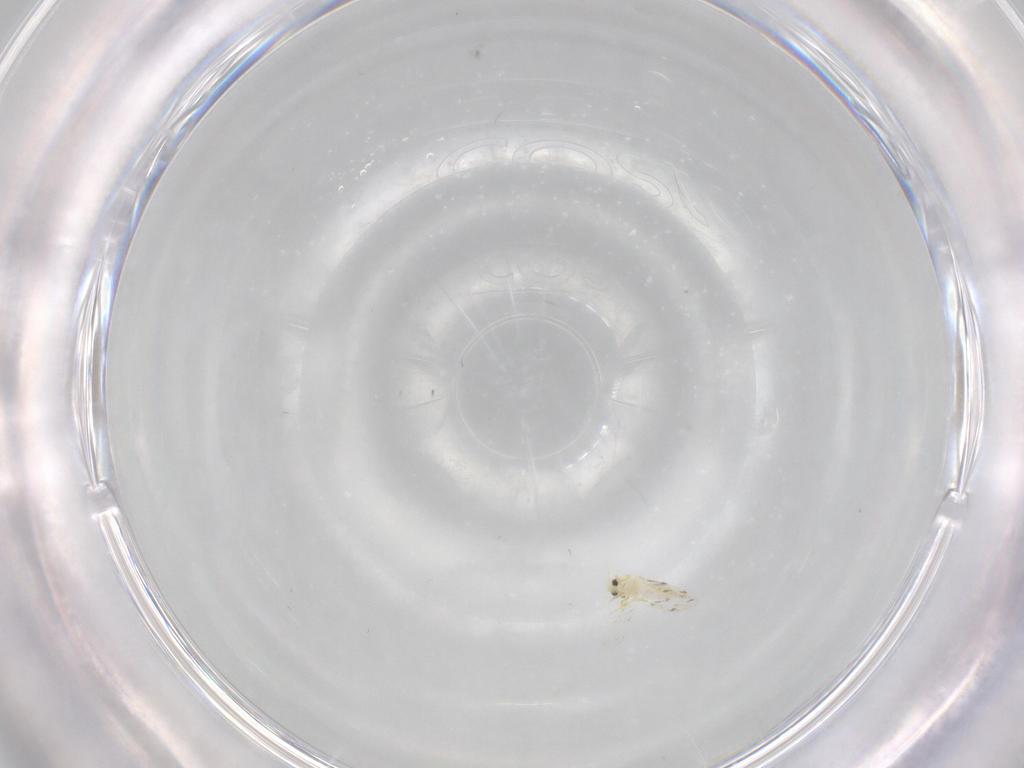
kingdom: Animalia
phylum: Arthropoda
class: Insecta
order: Hemiptera
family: Aleyrodidae
